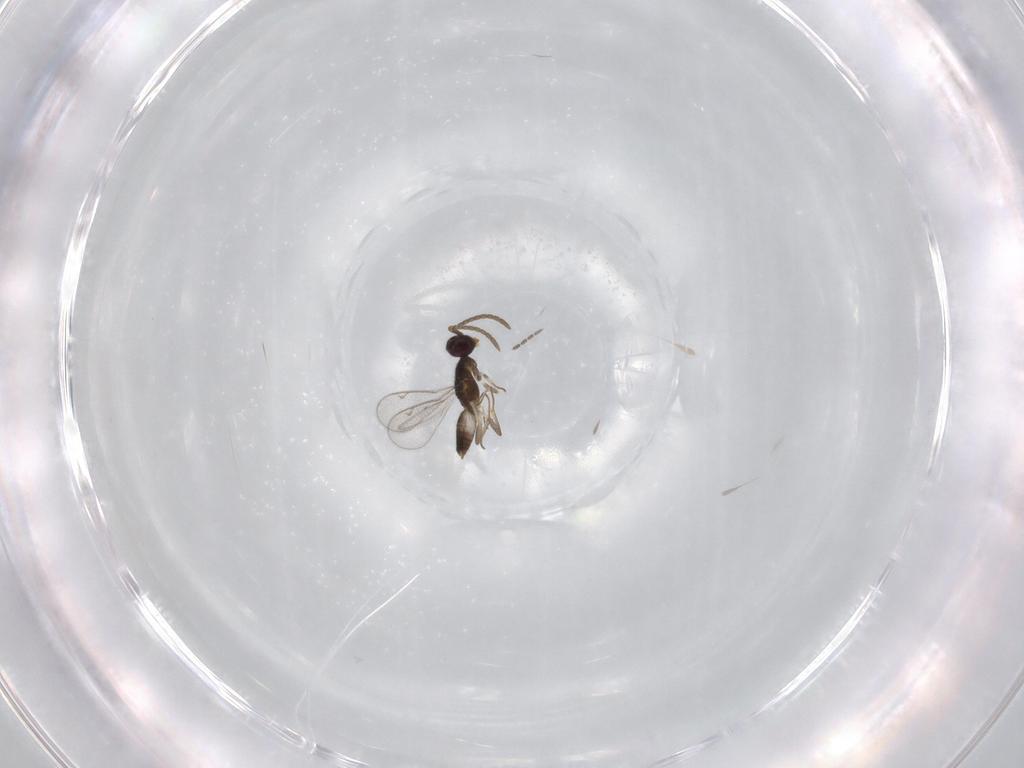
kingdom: Animalia
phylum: Arthropoda
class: Insecta
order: Hymenoptera
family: Eupelmidae
